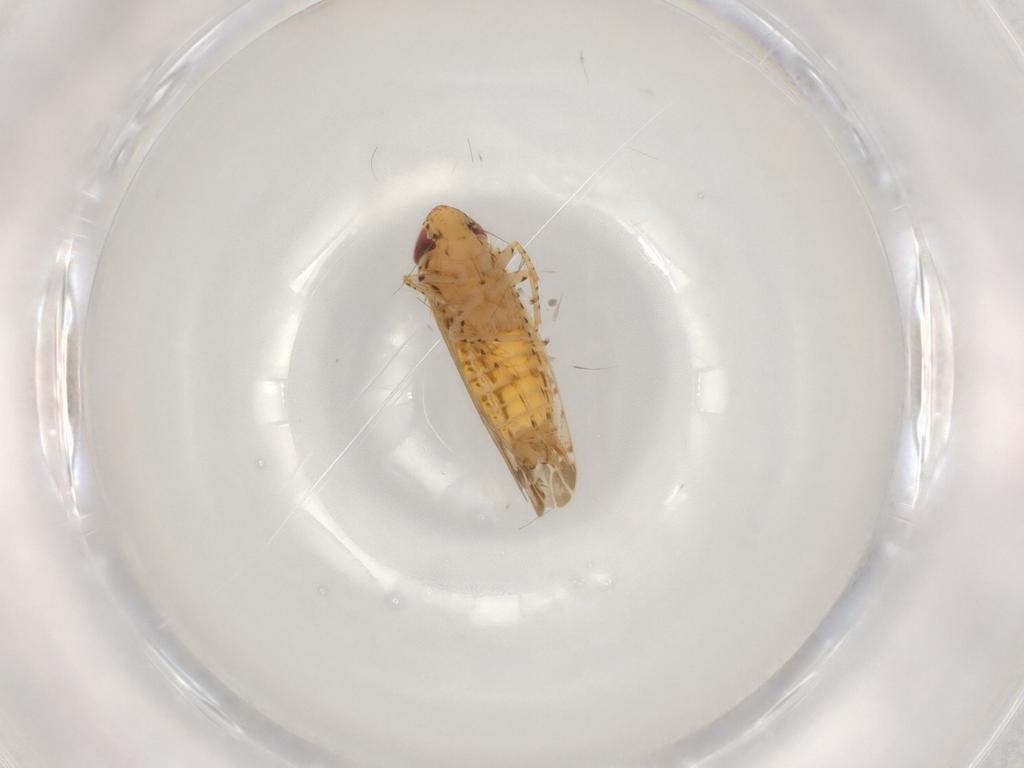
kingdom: Animalia
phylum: Arthropoda
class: Insecta
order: Hemiptera
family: Cicadellidae
